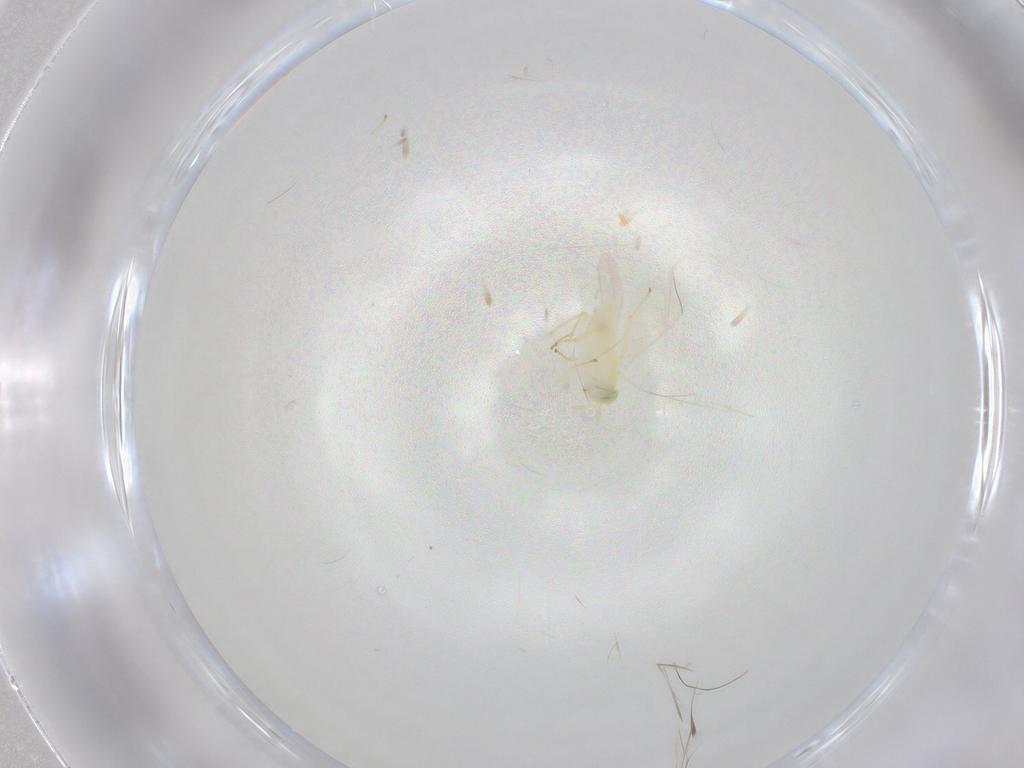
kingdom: Animalia
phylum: Arthropoda
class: Insecta
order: Hymenoptera
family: Aphelinidae
